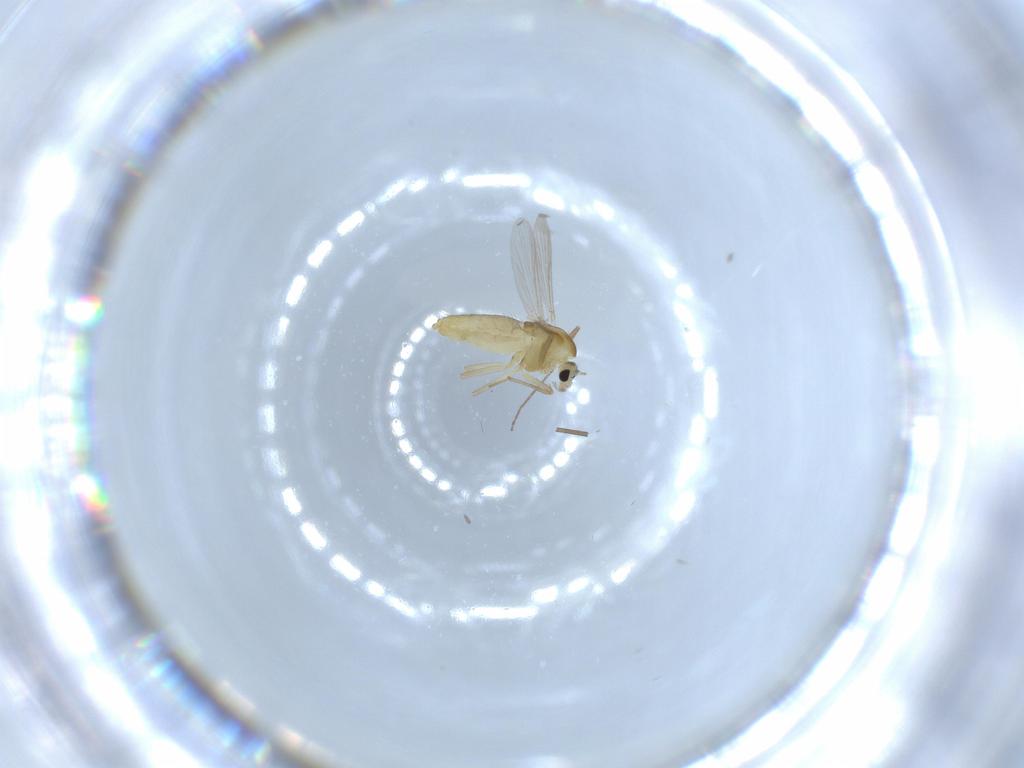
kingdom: Animalia
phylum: Arthropoda
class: Insecta
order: Diptera
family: Chironomidae
